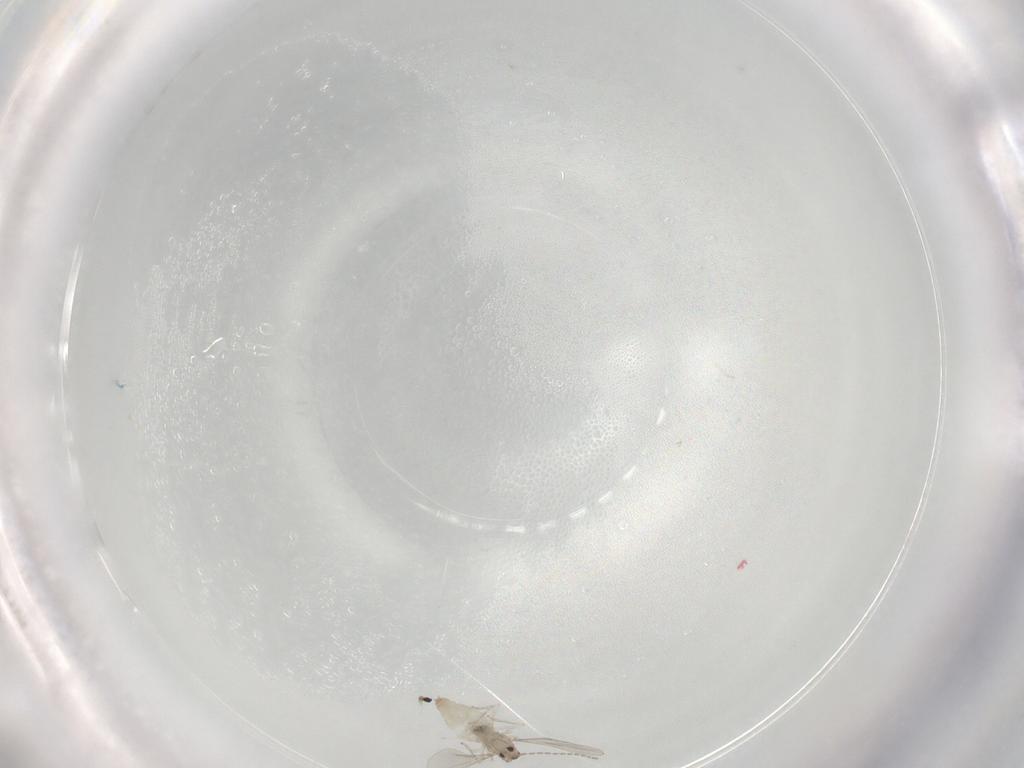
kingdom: Animalia
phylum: Arthropoda
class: Insecta
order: Diptera
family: Cecidomyiidae
